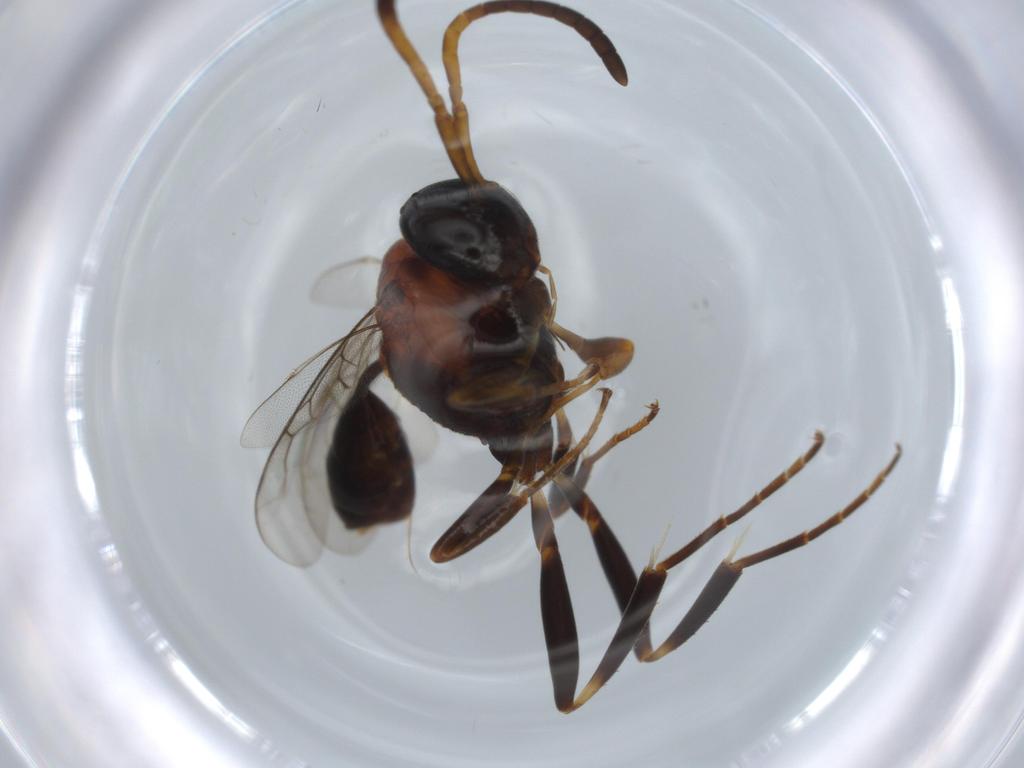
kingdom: Animalia
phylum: Arthropoda
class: Insecta
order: Hymenoptera
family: Evaniidae
